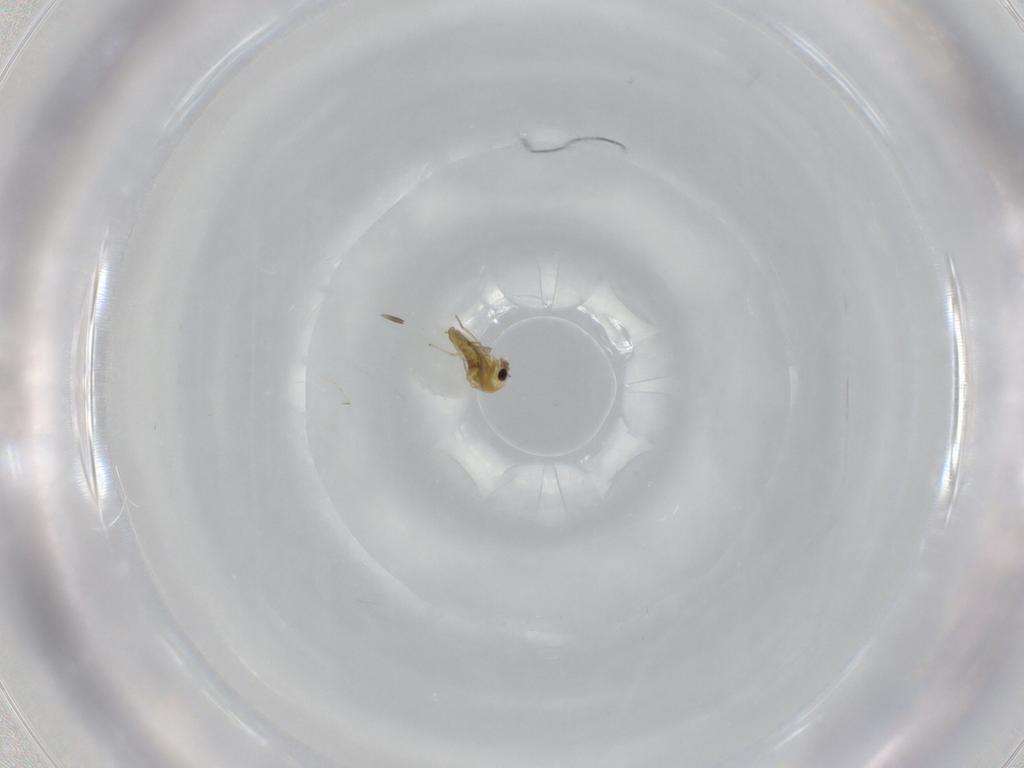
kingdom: Animalia
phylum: Arthropoda
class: Insecta
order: Diptera
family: Chironomidae
